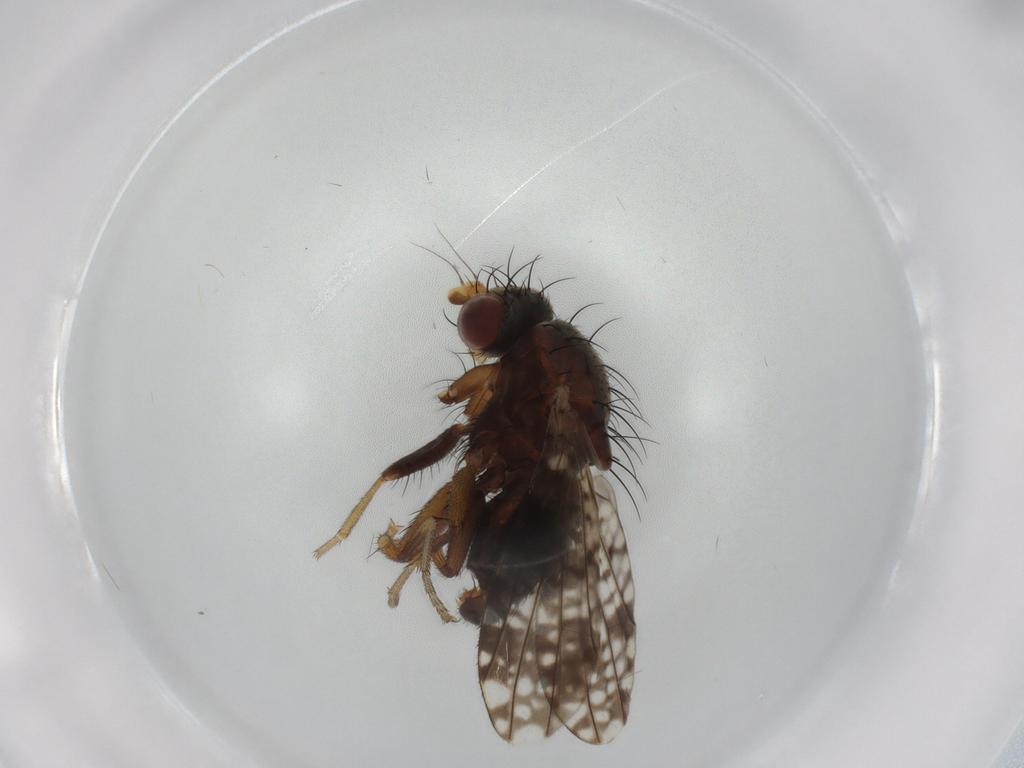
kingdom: Animalia
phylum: Arthropoda
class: Insecta
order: Diptera
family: Tephritidae
